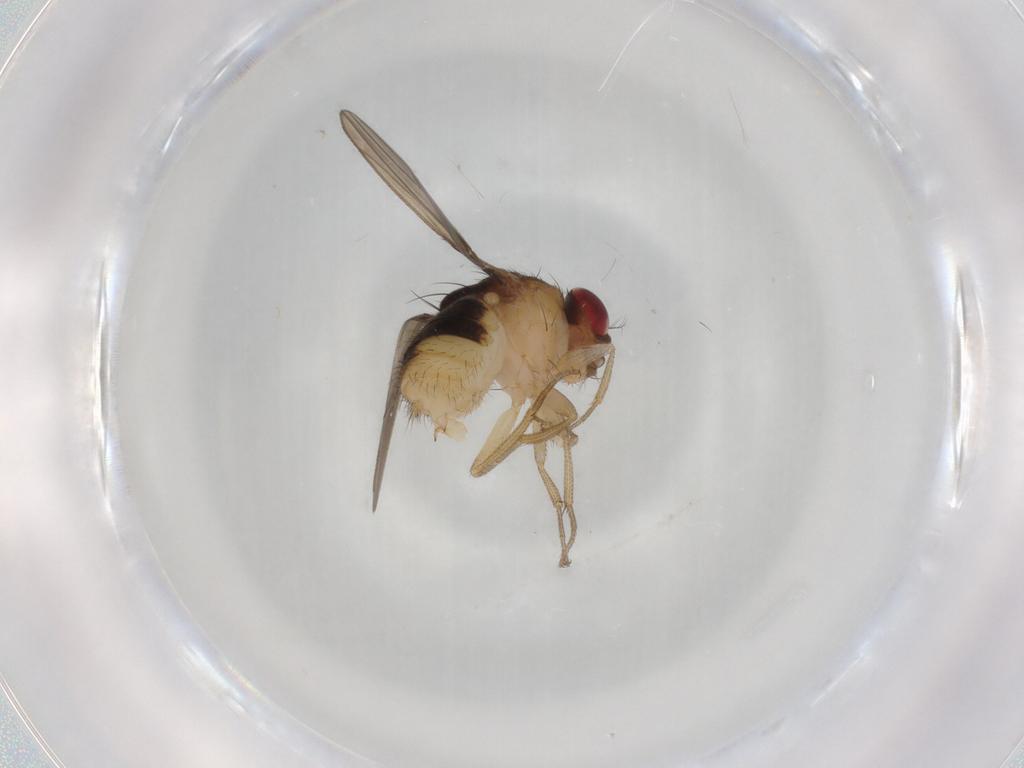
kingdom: Animalia
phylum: Arthropoda
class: Insecta
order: Diptera
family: Drosophilidae
